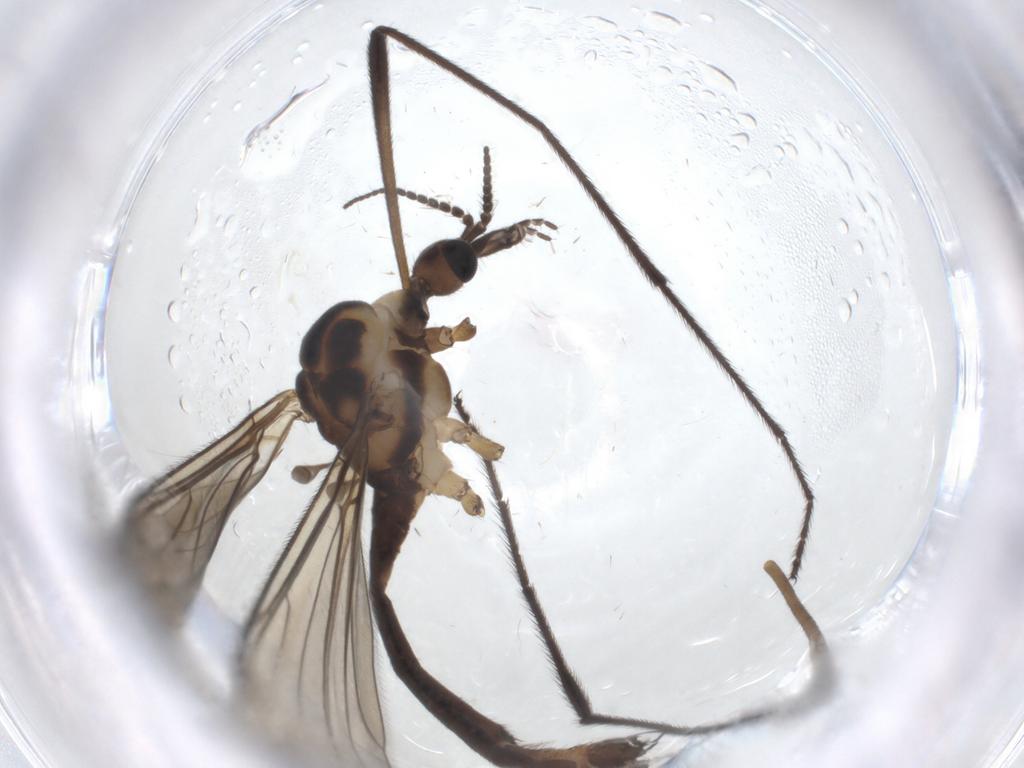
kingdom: Animalia
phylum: Arthropoda
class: Insecta
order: Diptera
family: Limoniidae
